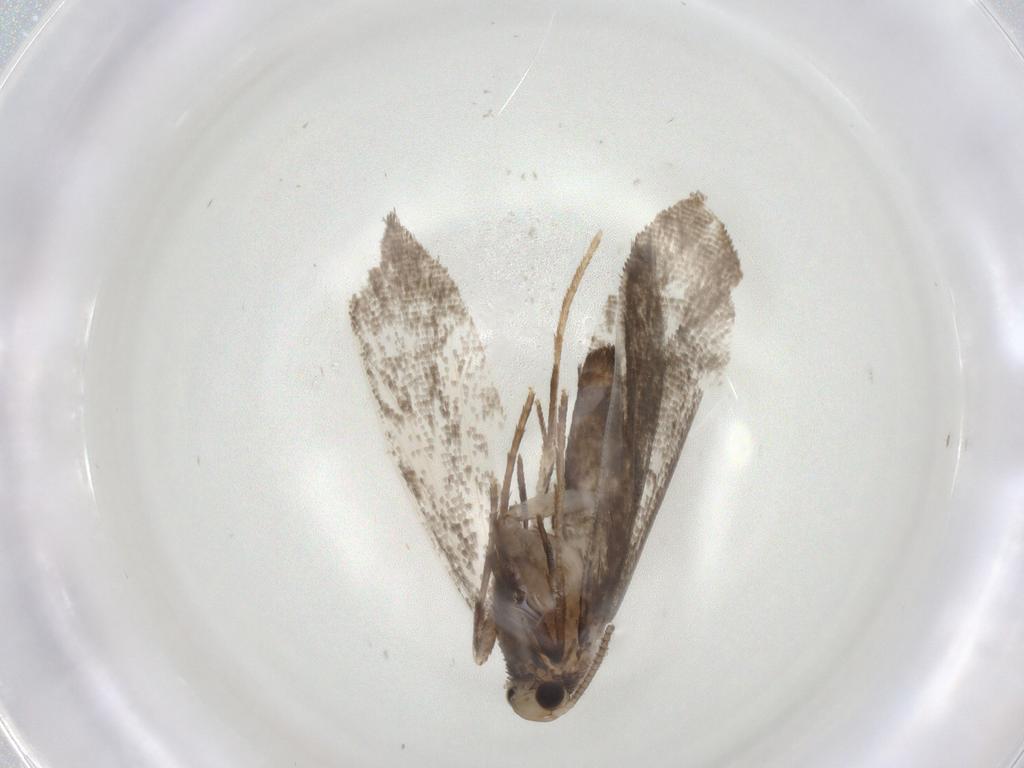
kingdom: Animalia
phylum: Arthropoda
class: Insecta
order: Lepidoptera
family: Nymphalidae
